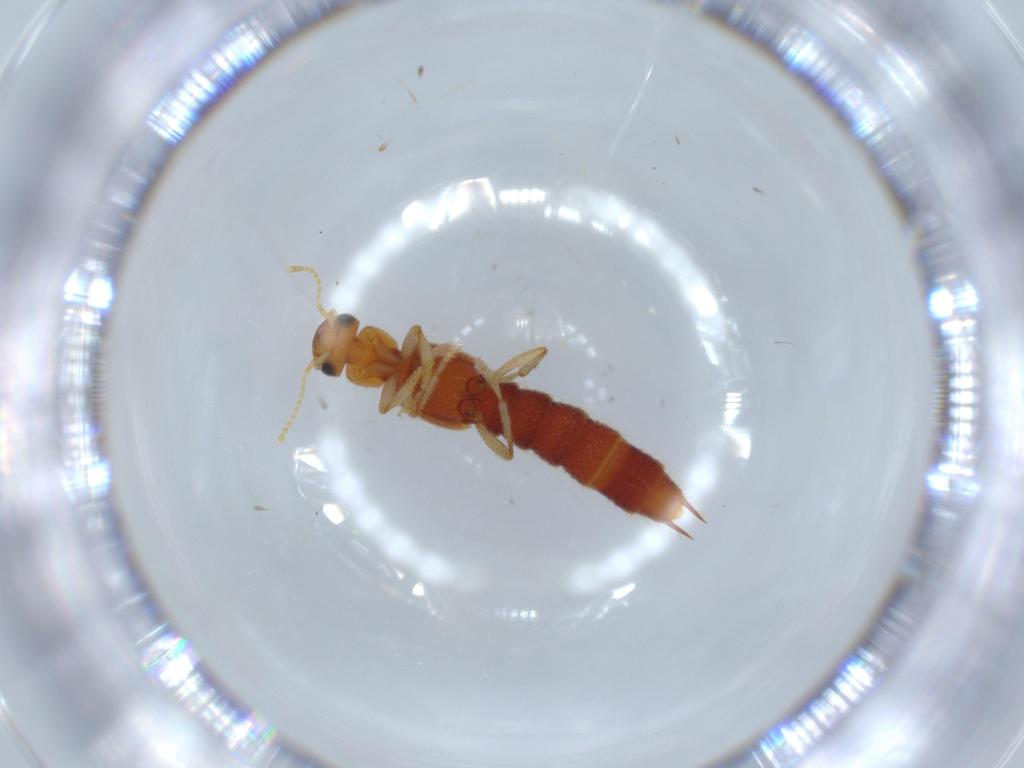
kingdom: Animalia
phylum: Arthropoda
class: Insecta
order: Coleoptera
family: Staphylinidae
